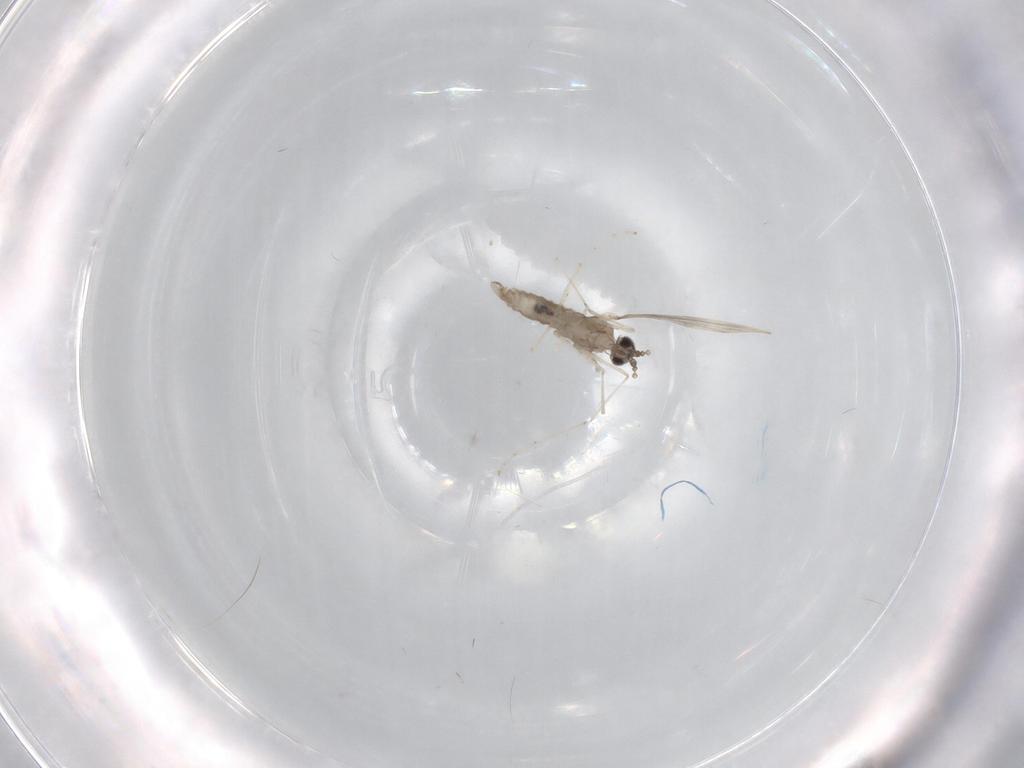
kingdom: Animalia
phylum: Arthropoda
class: Insecta
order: Diptera
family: Cecidomyiidae
